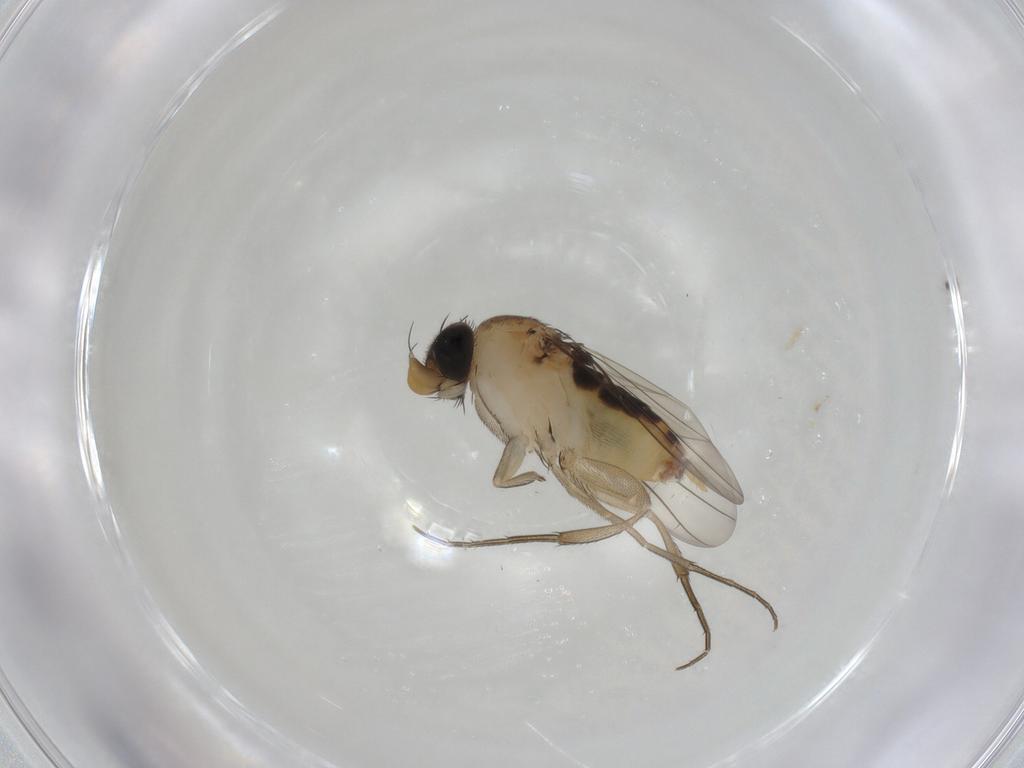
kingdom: Animalia
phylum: Arthropoda
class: Insecta
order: Diptera
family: Phoridae
